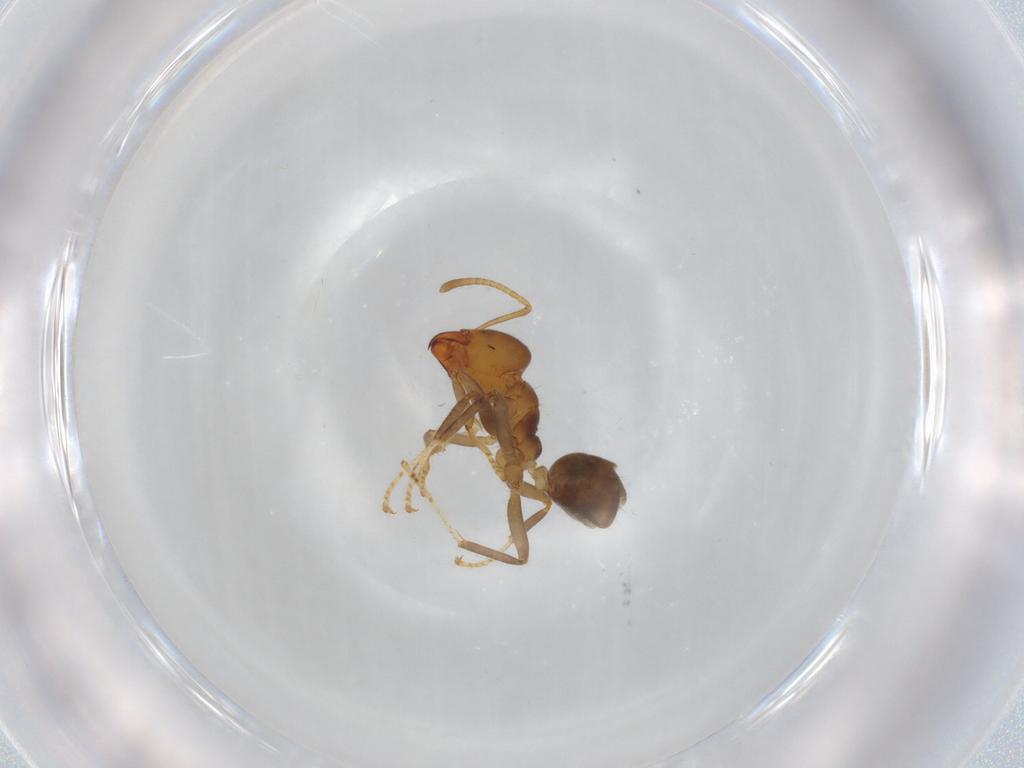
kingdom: Animalia
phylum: Arthropoda
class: Insecta
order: Hymenoptera
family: Formicidae
